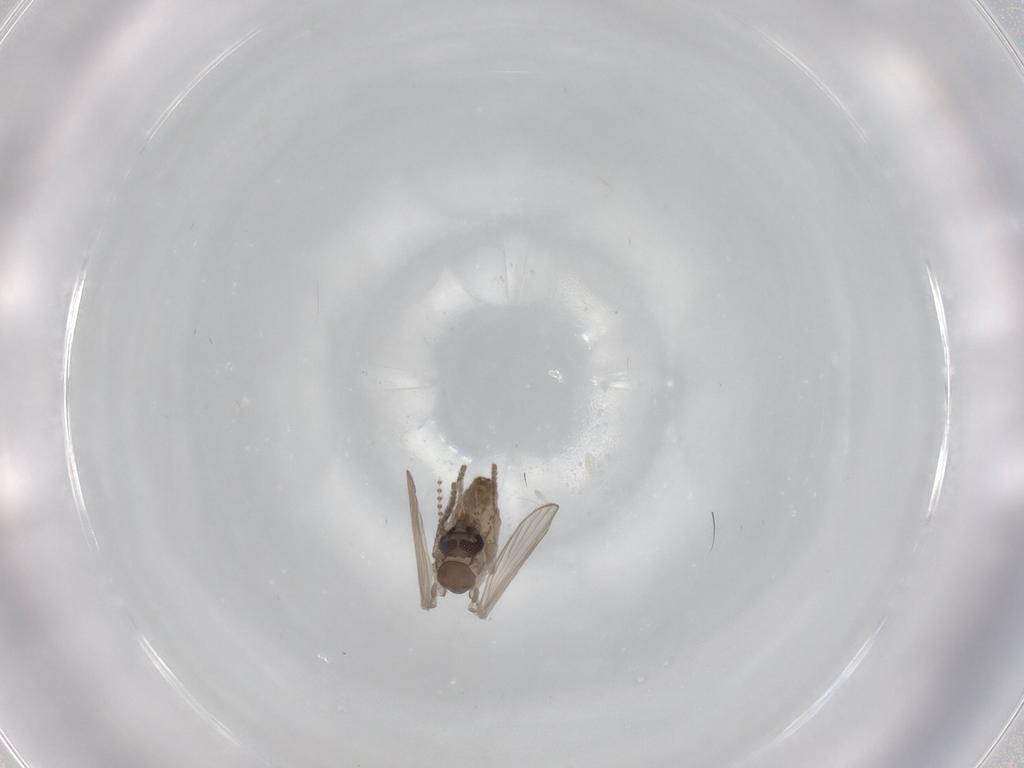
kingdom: Animalia
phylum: Arthropoda
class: Insecta
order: Diptera
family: Psychodidae
